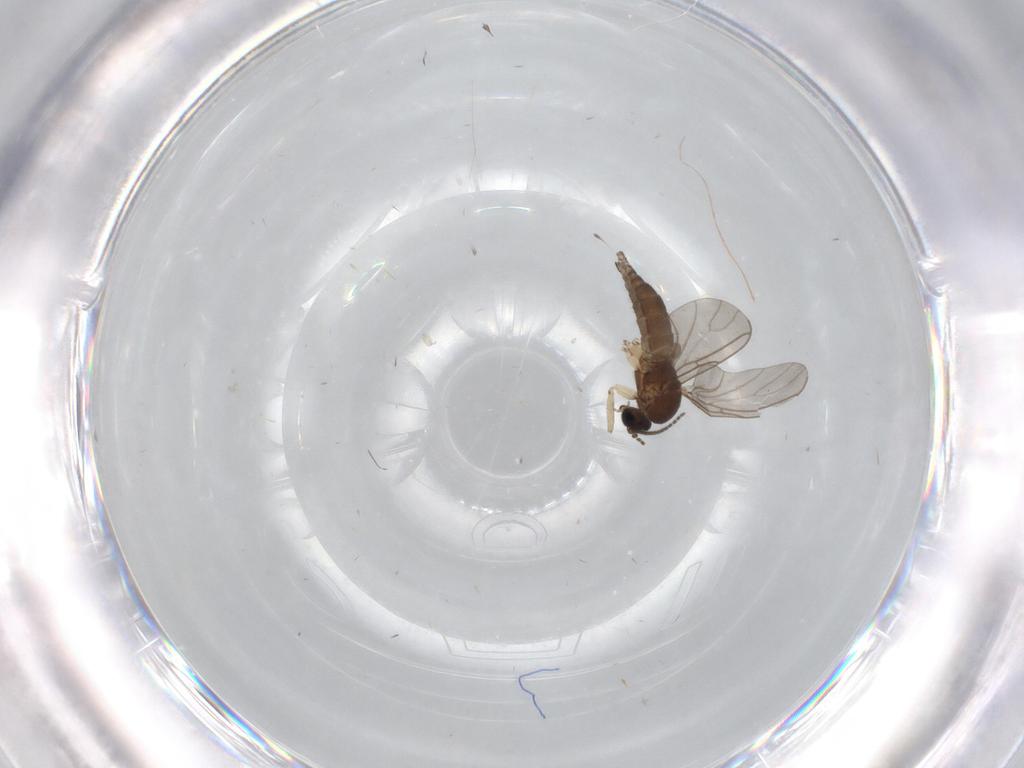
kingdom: Animalia
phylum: Arthropoda
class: Insecta
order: Diptera
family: Sciaridae
